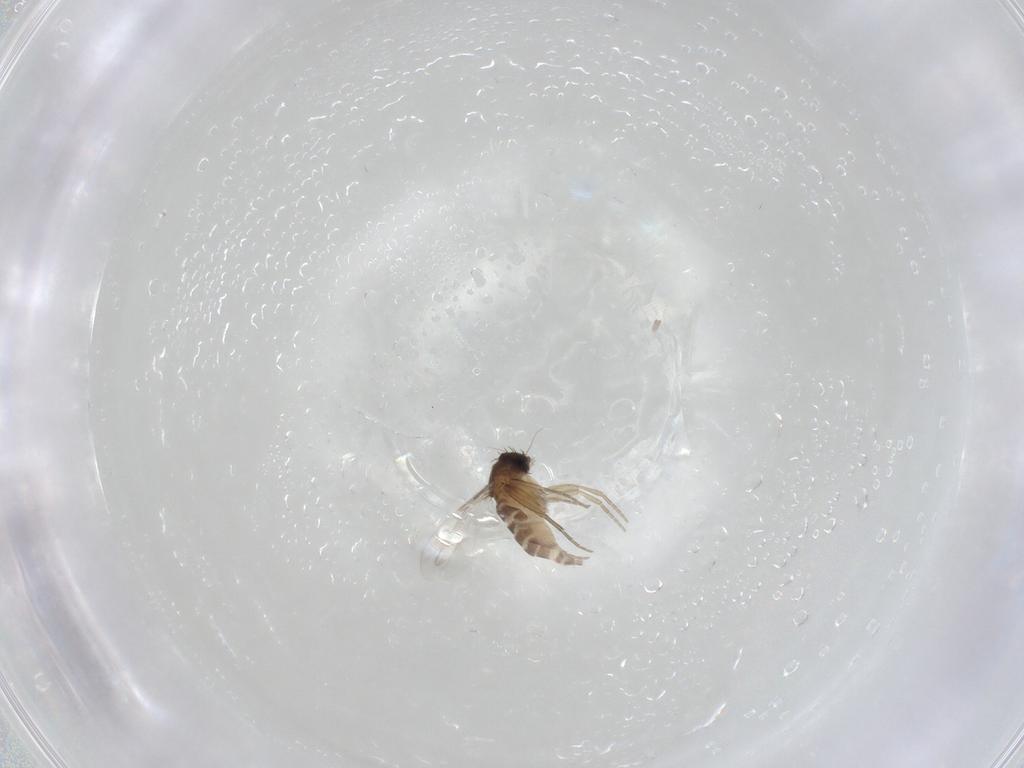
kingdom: Animalia
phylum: Arthropoda
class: Insecta
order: Diptera
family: Phoridae
